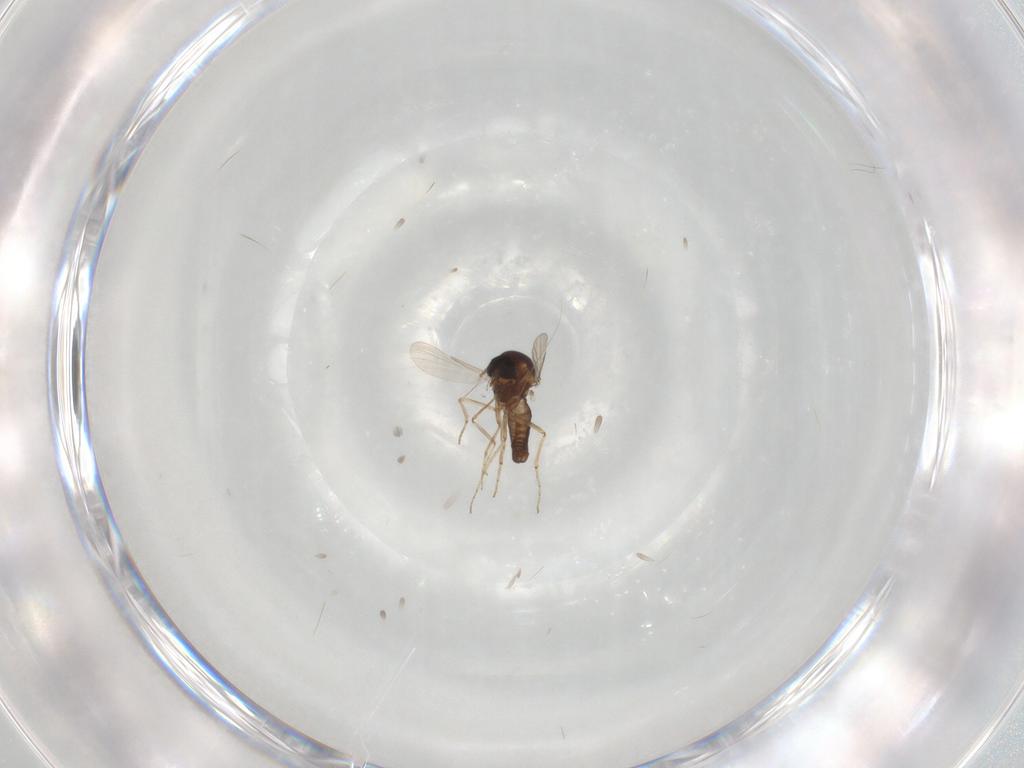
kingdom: Animalia
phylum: Arthropoda
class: Insecta
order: Diptera
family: Ceratopogonidae
